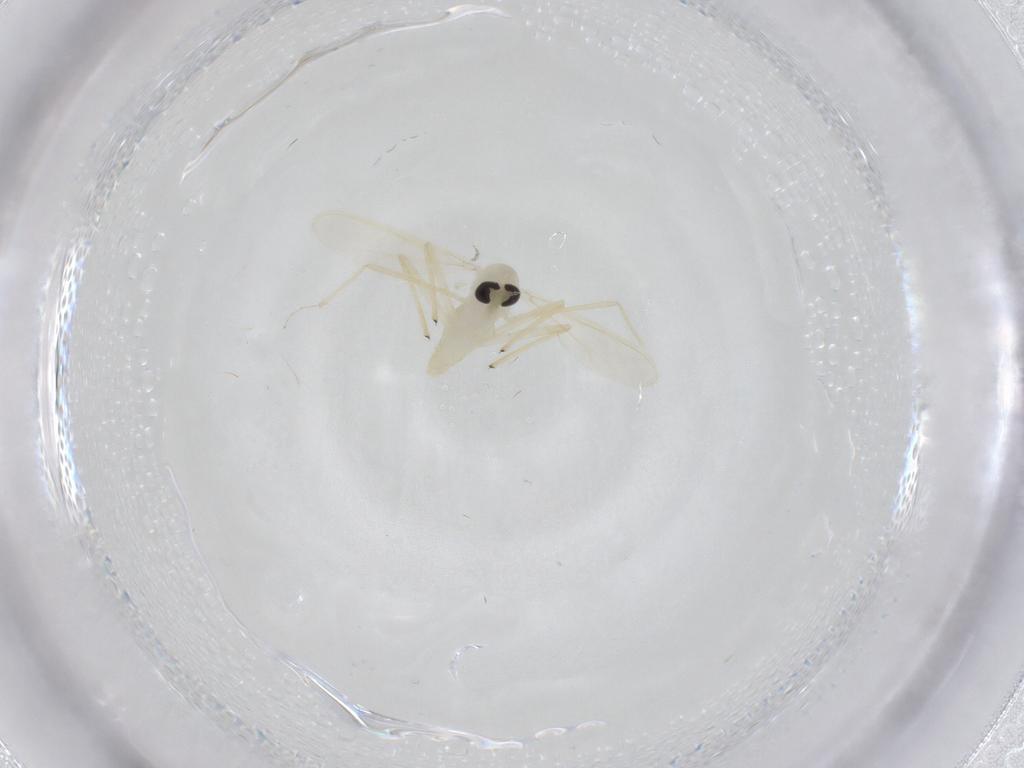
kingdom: Animalia
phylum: Arthropoda
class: Insecta
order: Diptera
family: Chironomidae
